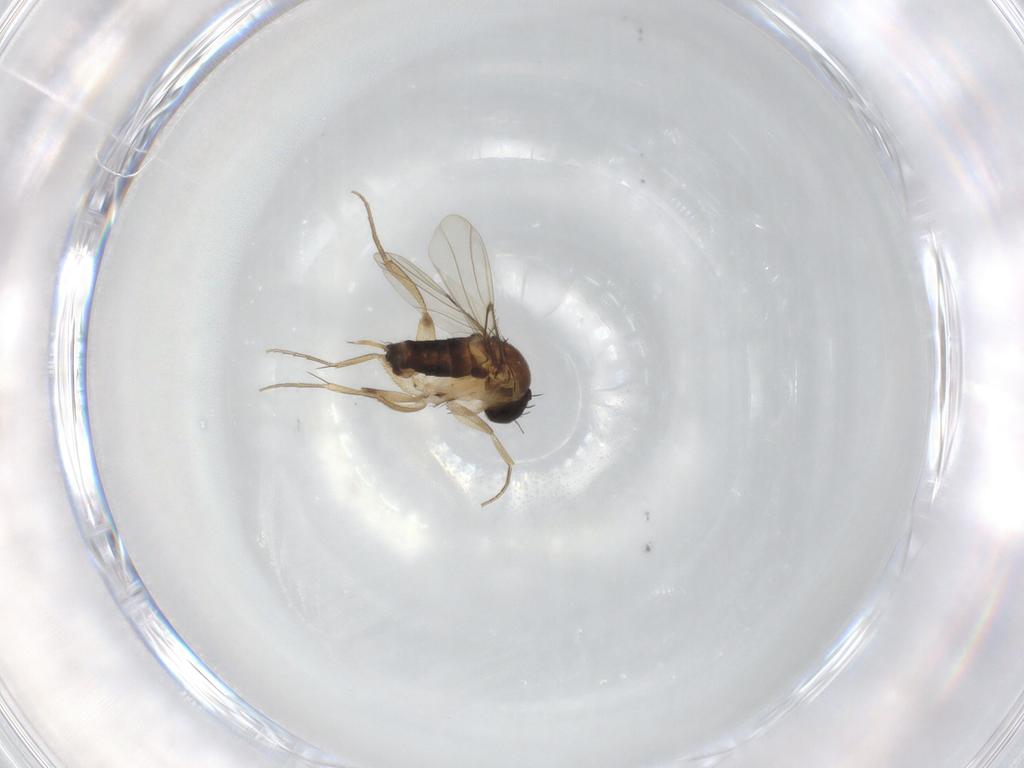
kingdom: Animalia
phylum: Arthropoda
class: Insecta
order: Diptera
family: Phoridae
